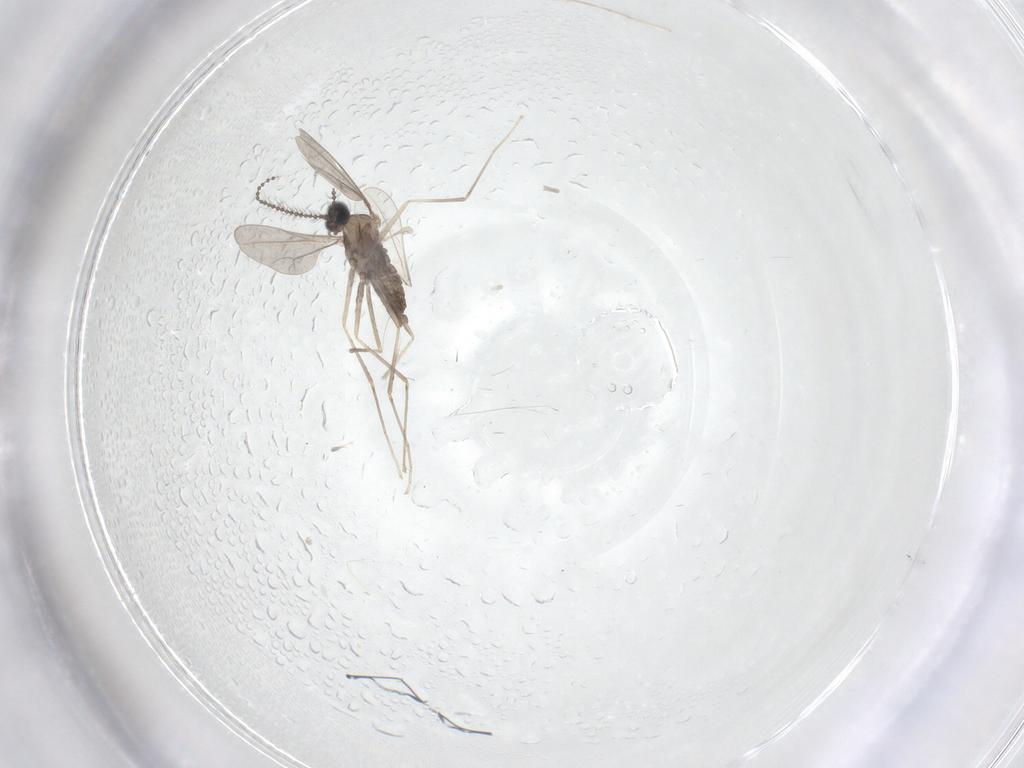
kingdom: Animalia
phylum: Arthropoda
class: Insecta
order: Diptera
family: Cecidomyiidae
